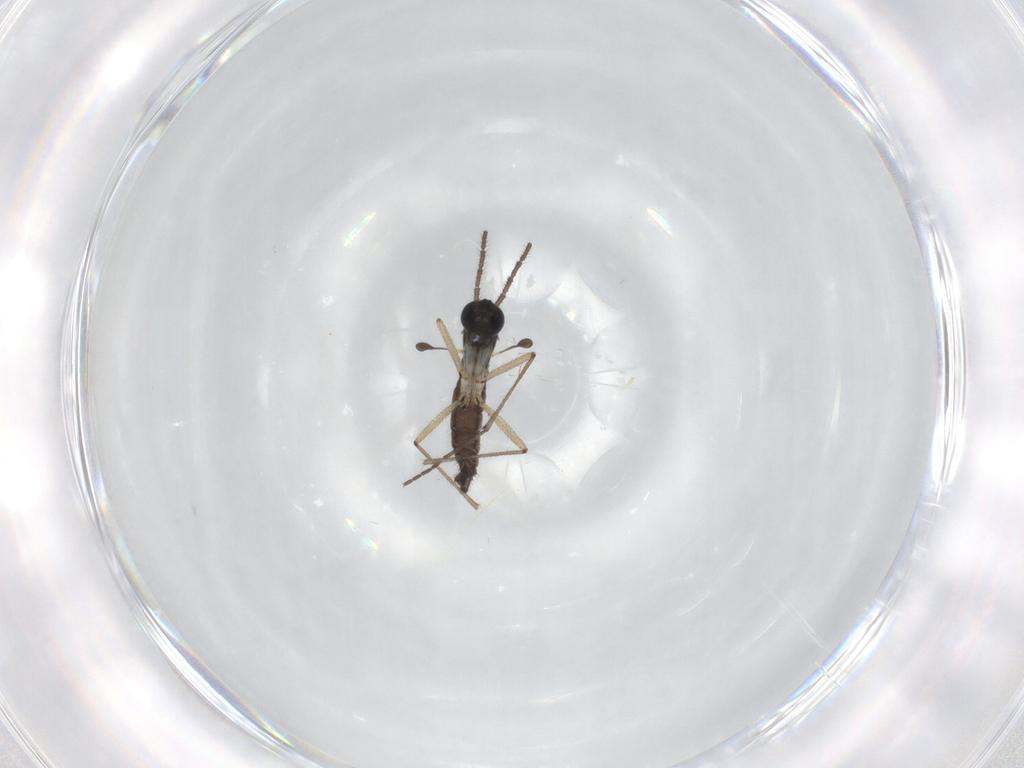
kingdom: Animalia
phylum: Arthropoda
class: Insecta
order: Diptera
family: Sciaridae
